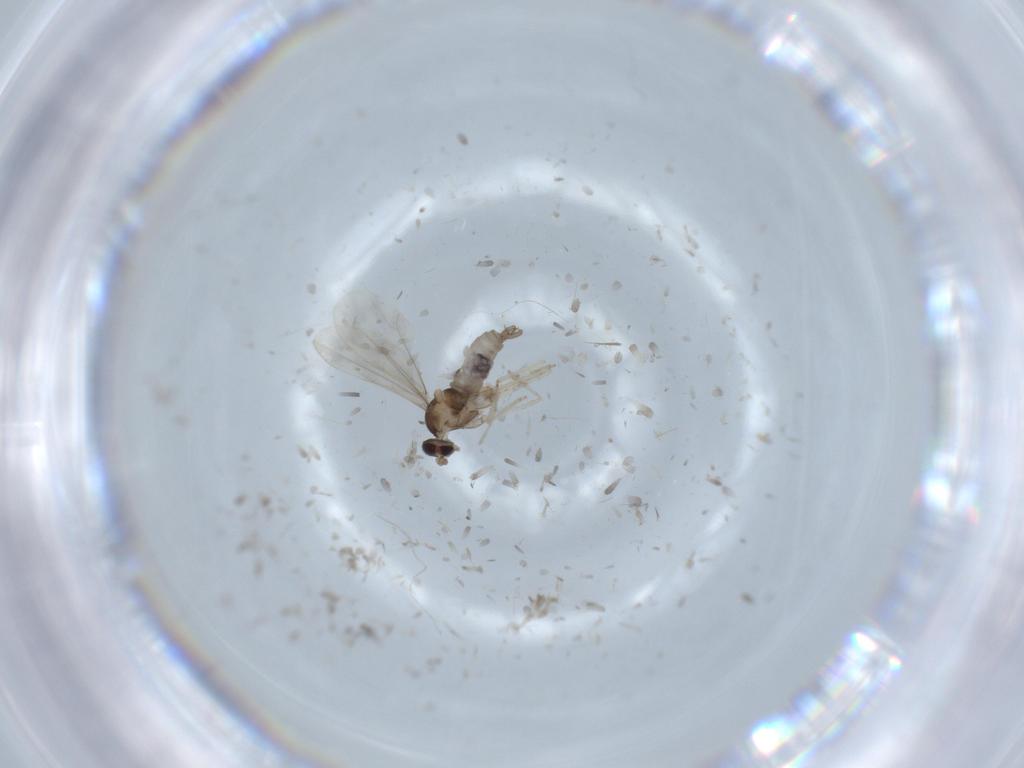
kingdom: Animalia
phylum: Arthropoda
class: Insecta
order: Diptera
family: Cecidomyiidae
